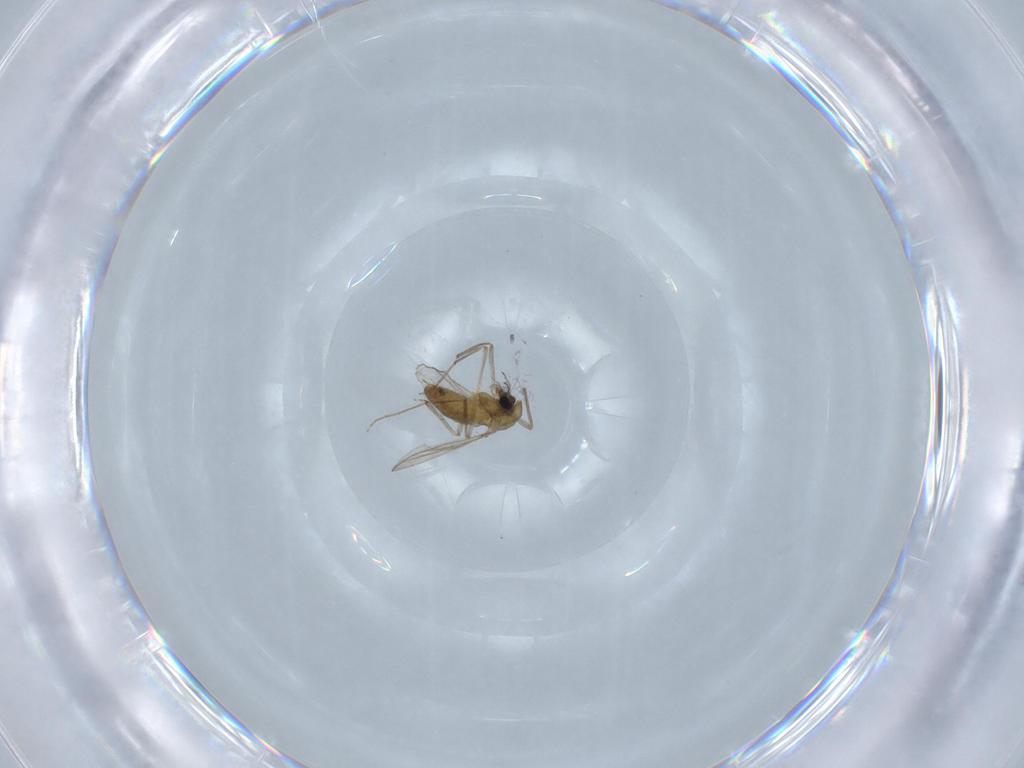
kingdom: Animalia
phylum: Arthropoda
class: Insecta
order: Diptera
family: Chironomidae
